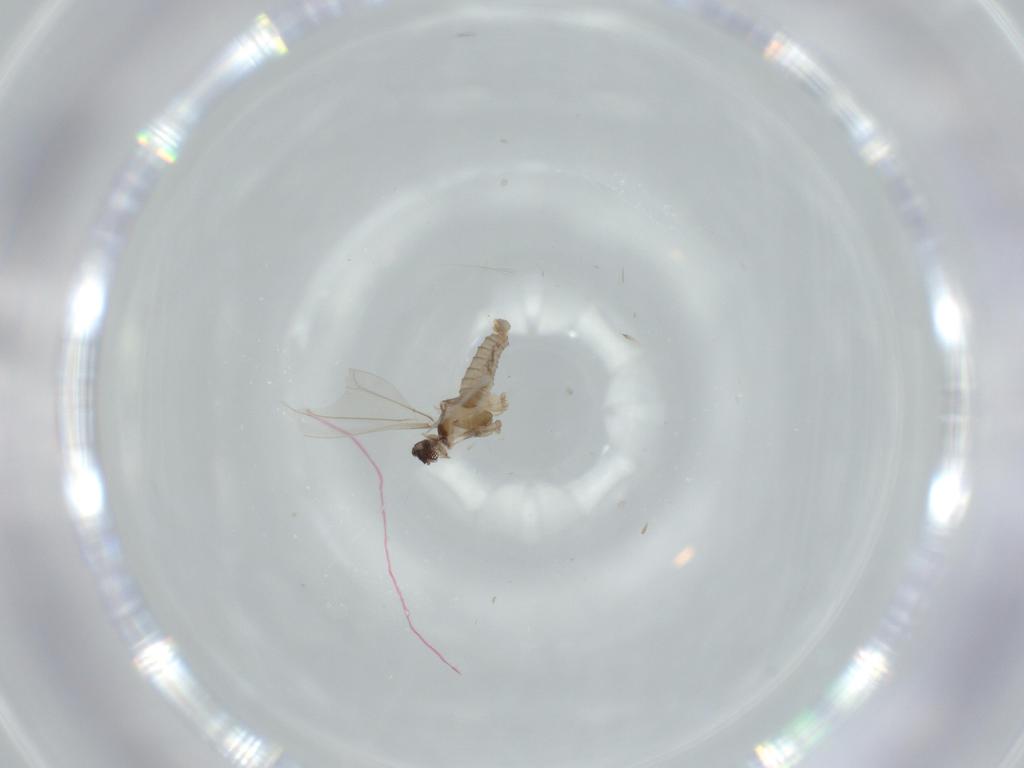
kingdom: Animalia
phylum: Arthropoda
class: Insecta
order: Diptera
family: Cecidomyiidae
